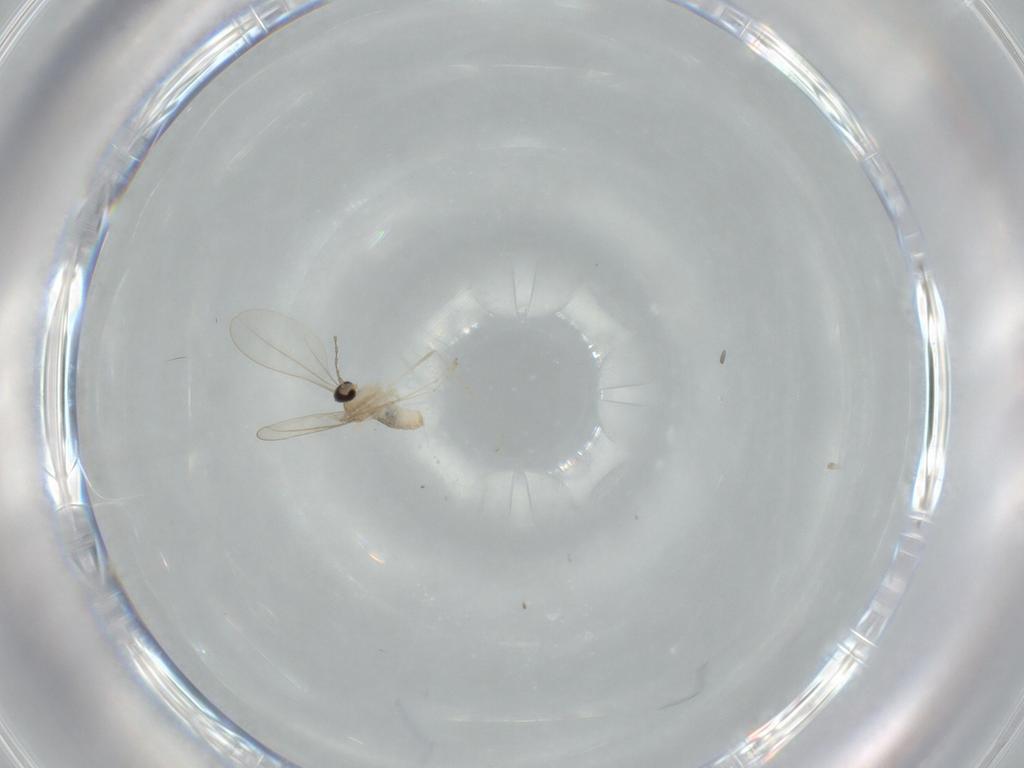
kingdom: Animalia
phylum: Arthropoda
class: Insecta
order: Diptera
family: Cecidomyiidae
